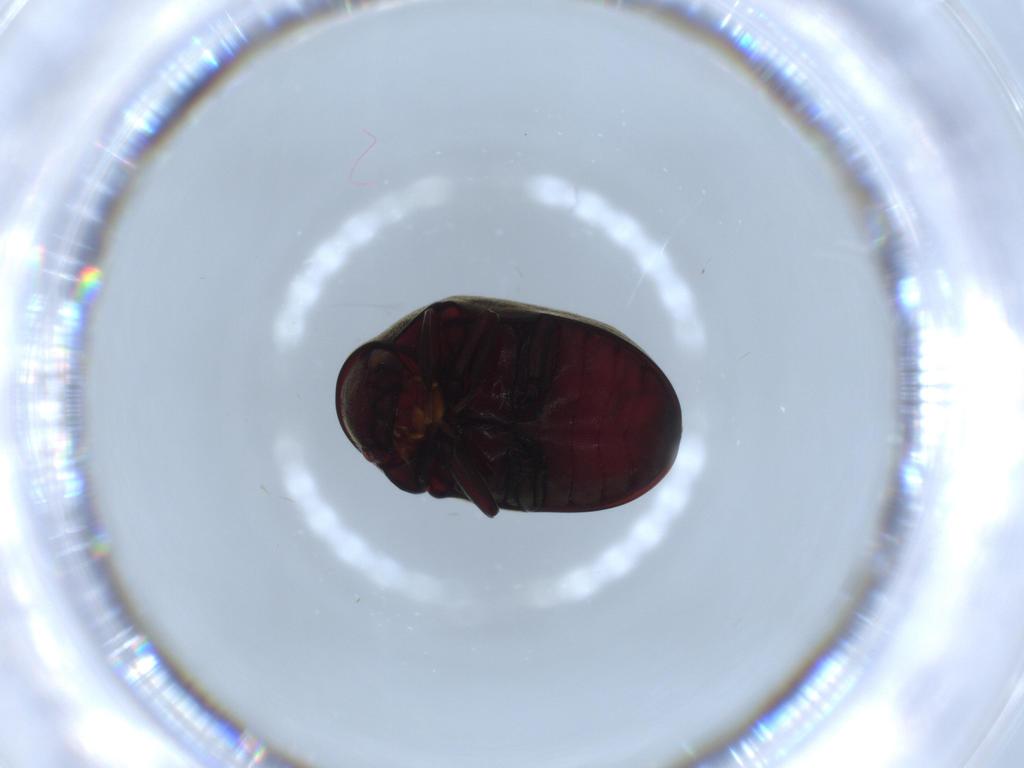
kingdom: Animalia
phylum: Arthropoda
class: Insecta
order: Coleoptera
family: Ptinidae
